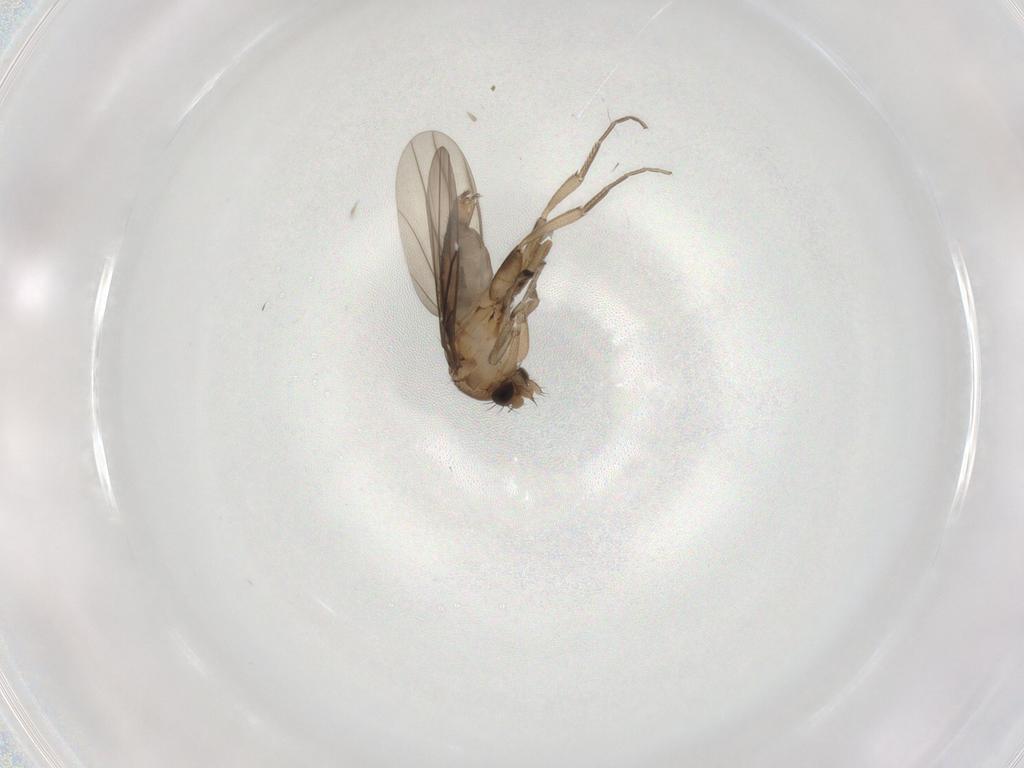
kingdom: Animalia
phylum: Arthropoda
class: Insecta
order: Diptera
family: Phoridae
